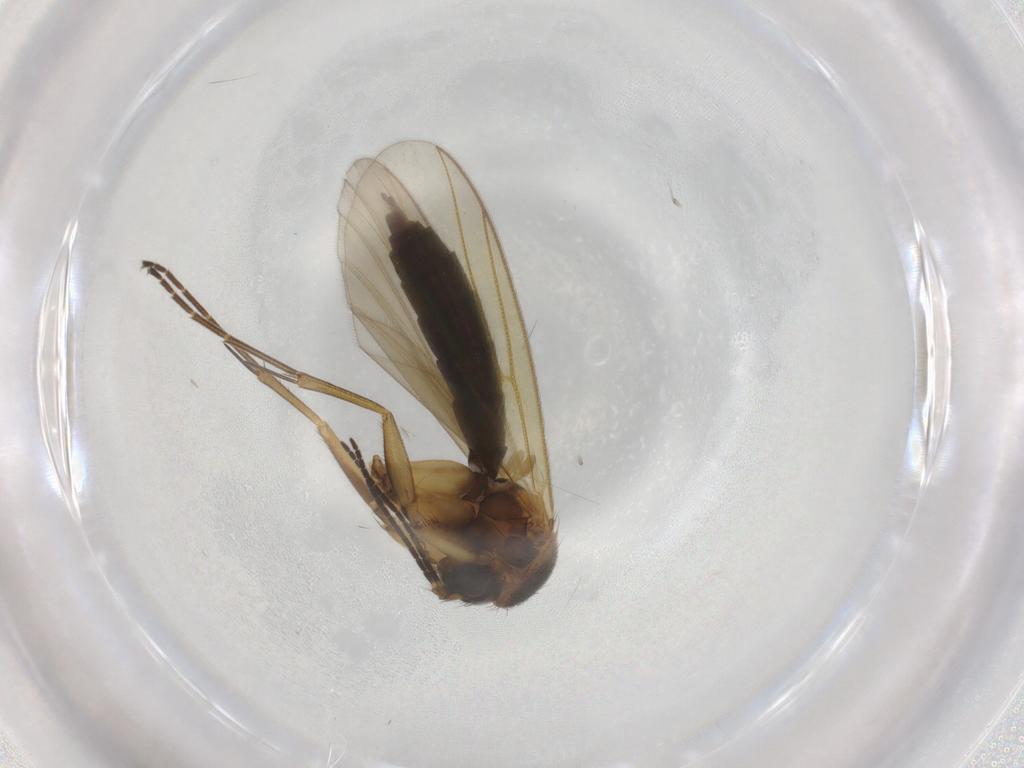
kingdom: Animalia
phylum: Arthropoda
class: Insecta
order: Diptera
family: Mycetophilidae
